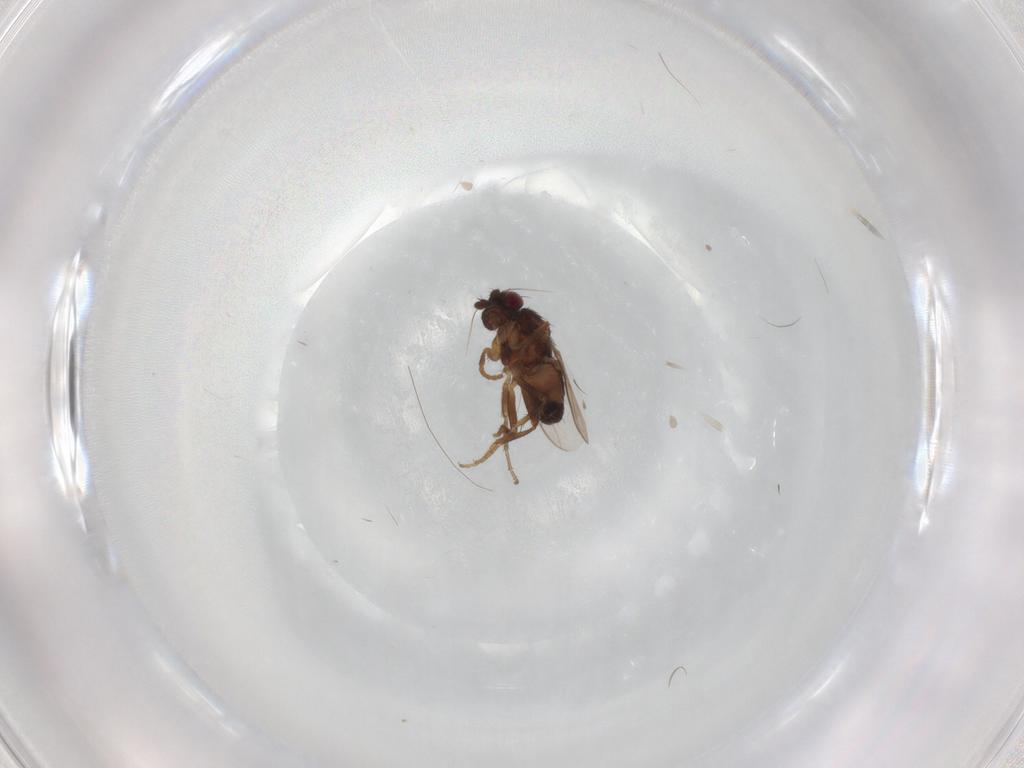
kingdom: Animalia
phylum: Arthropoda
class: Insecta
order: Diptera
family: Sphaeroceridae
